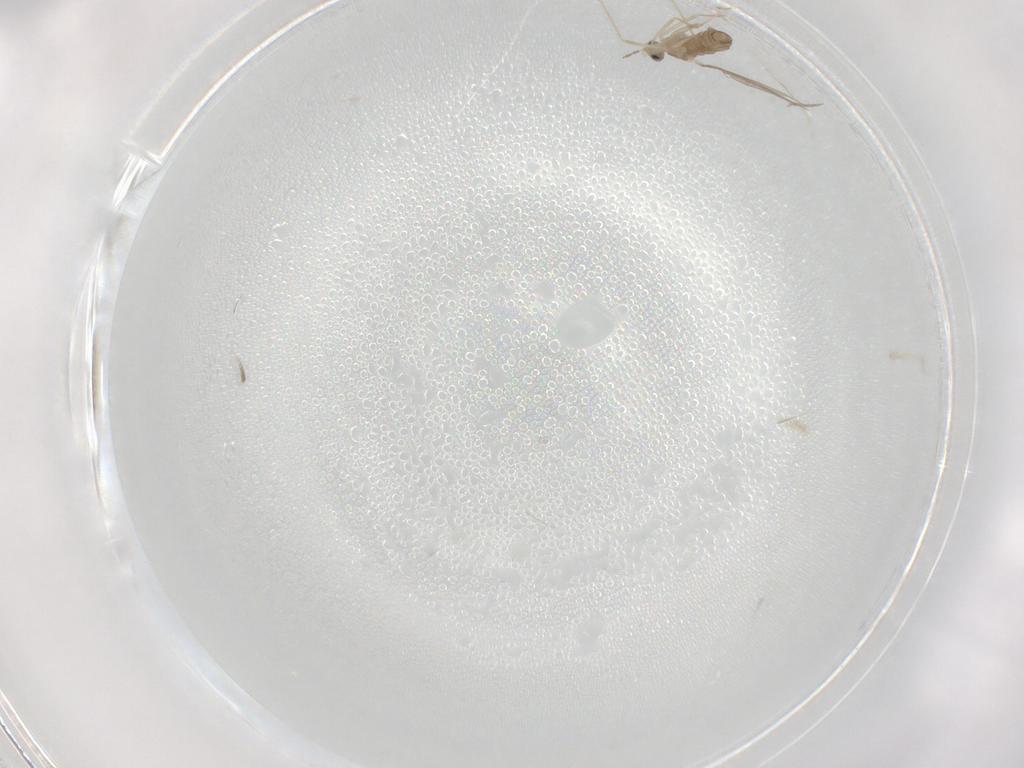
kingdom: Animalia
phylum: Arthropoda
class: Insecta
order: Diptera
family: Cecidomyiidae
